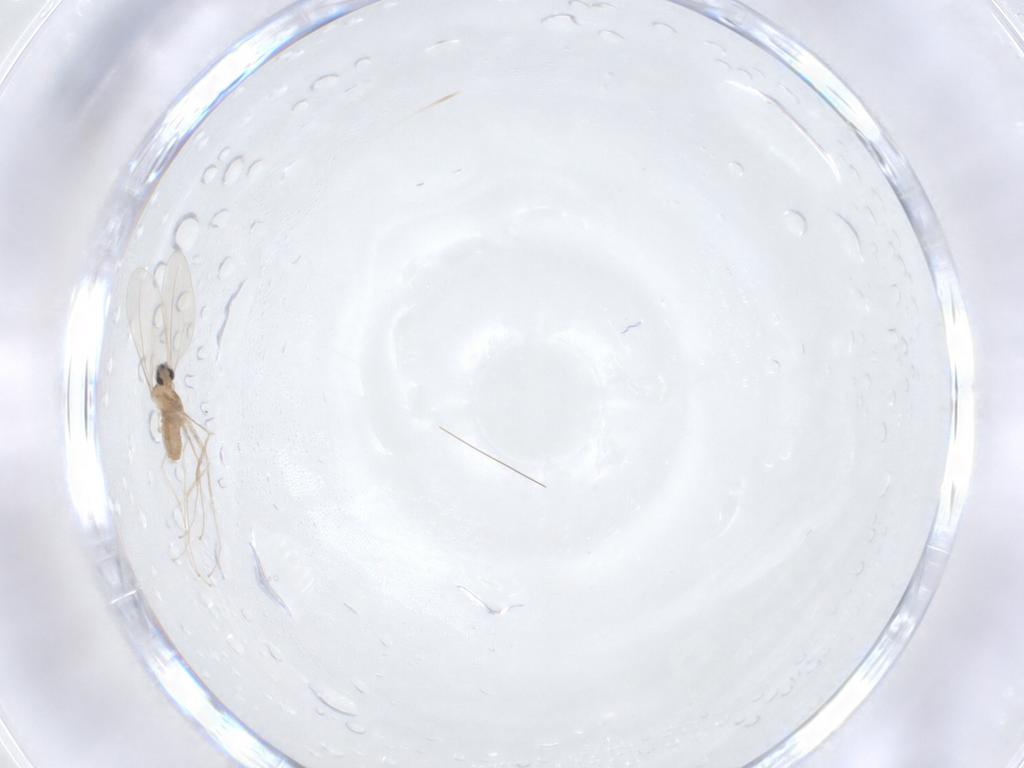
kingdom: Animalia
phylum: Arthropoda
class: Insecta
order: Diptera
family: Cecidomyiidae
